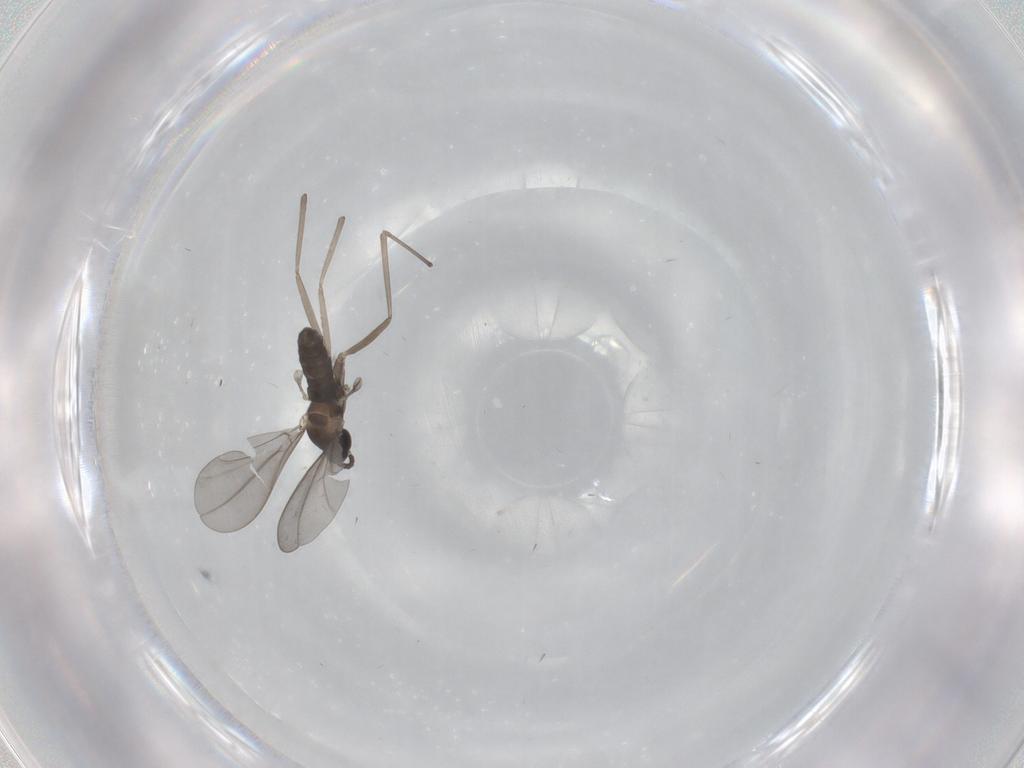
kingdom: Animalia
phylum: Arthropoda
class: Insecta
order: Diptera
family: Cecidomyiidae
